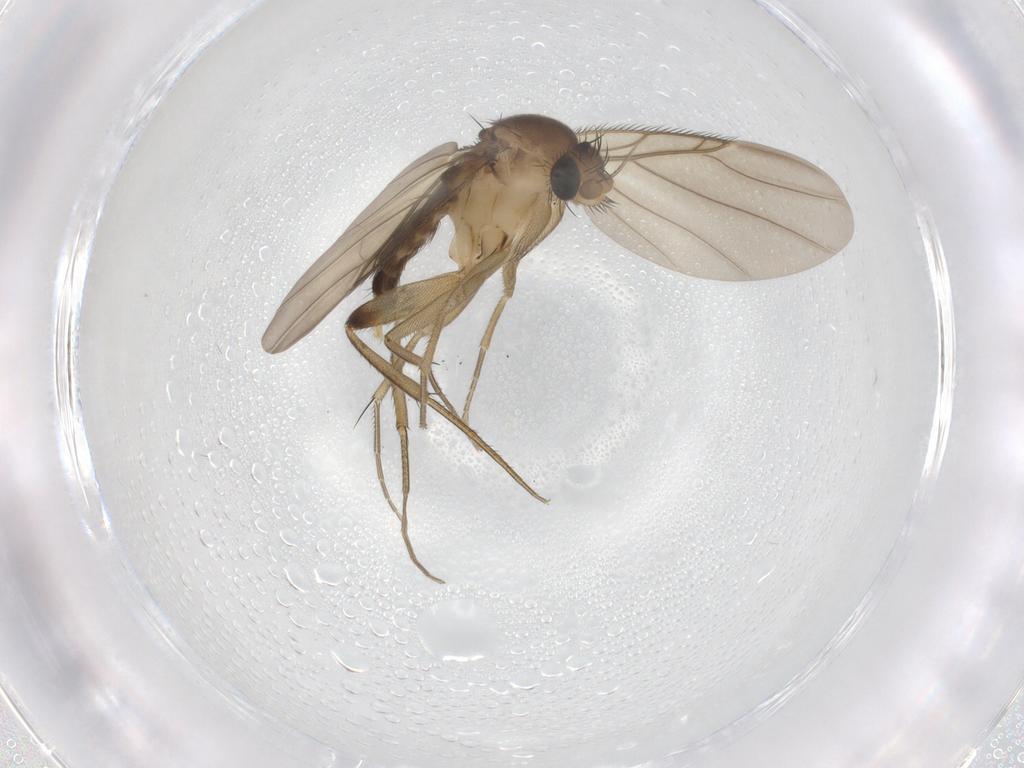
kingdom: Animalia
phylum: Arthropoda
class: Insecta
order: Diptera
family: Phoridae
